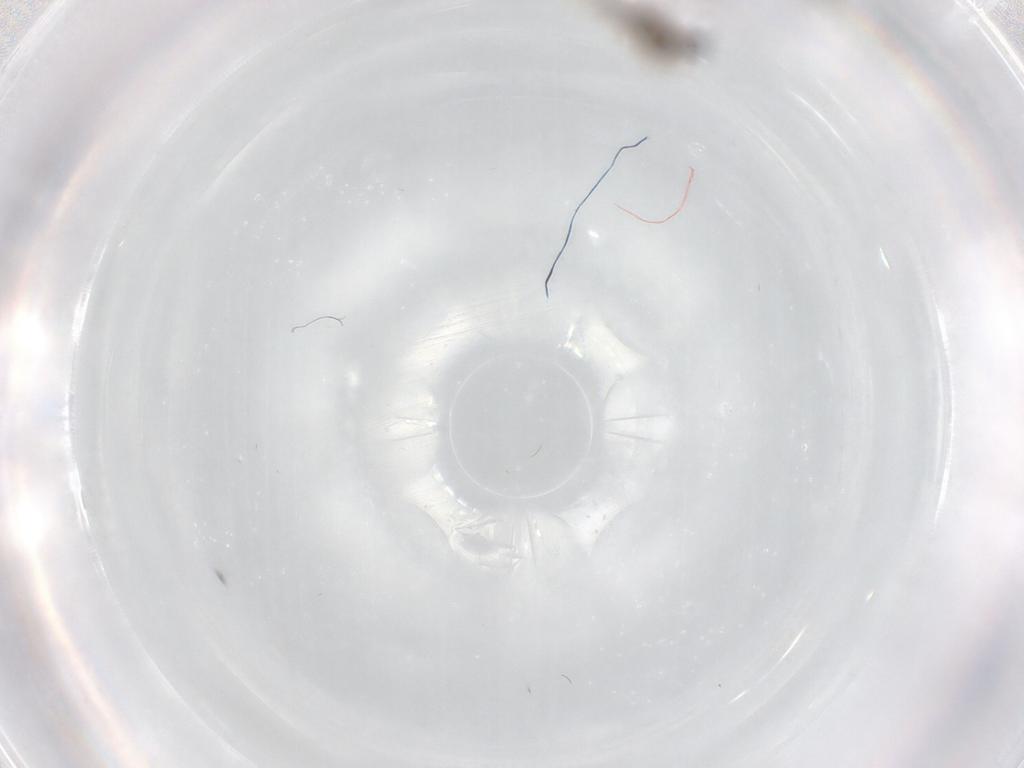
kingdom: Animalia
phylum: Arthropoda
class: Insecta
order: Diptera
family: Cecidomyiidae
